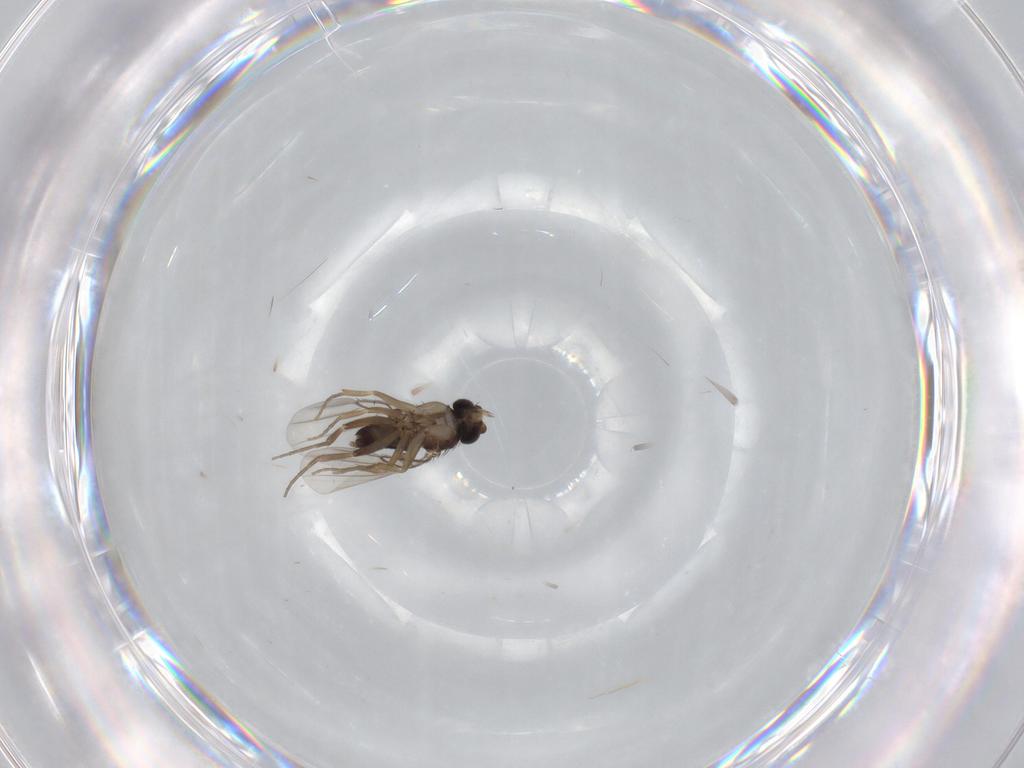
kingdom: Animalia
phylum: Arthropoda
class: Insecta
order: Diptera
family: Phoridae
